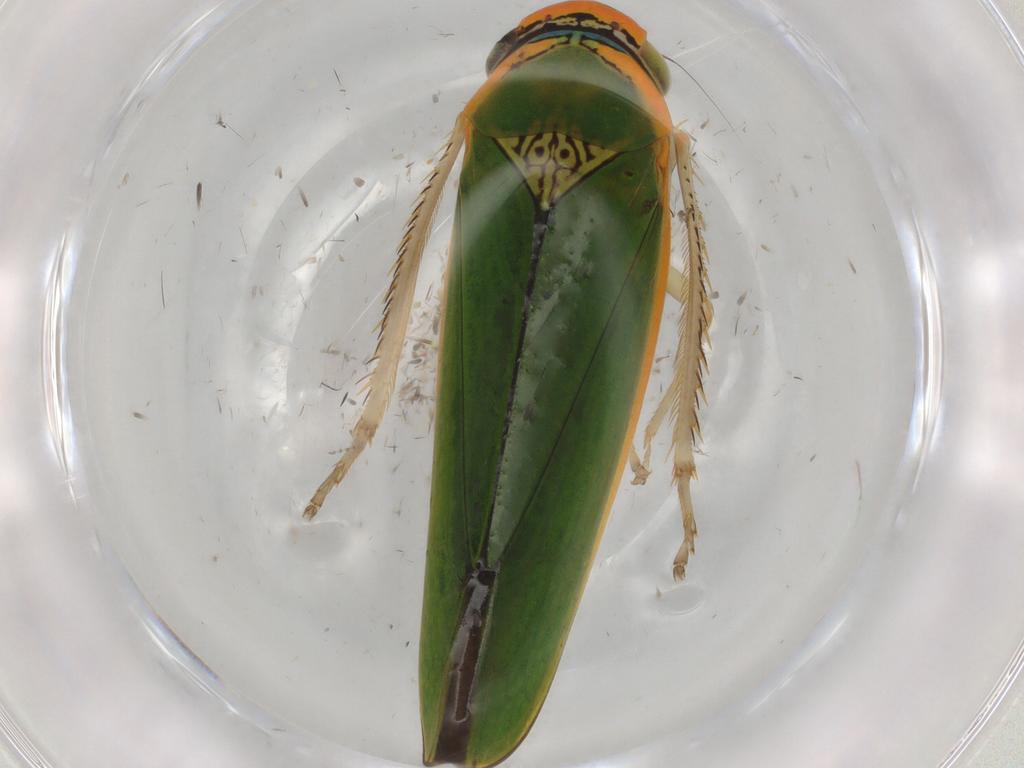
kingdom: Animalia
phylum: Arthropoda
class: Insecta
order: Hemiptera
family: Cicadellidae
